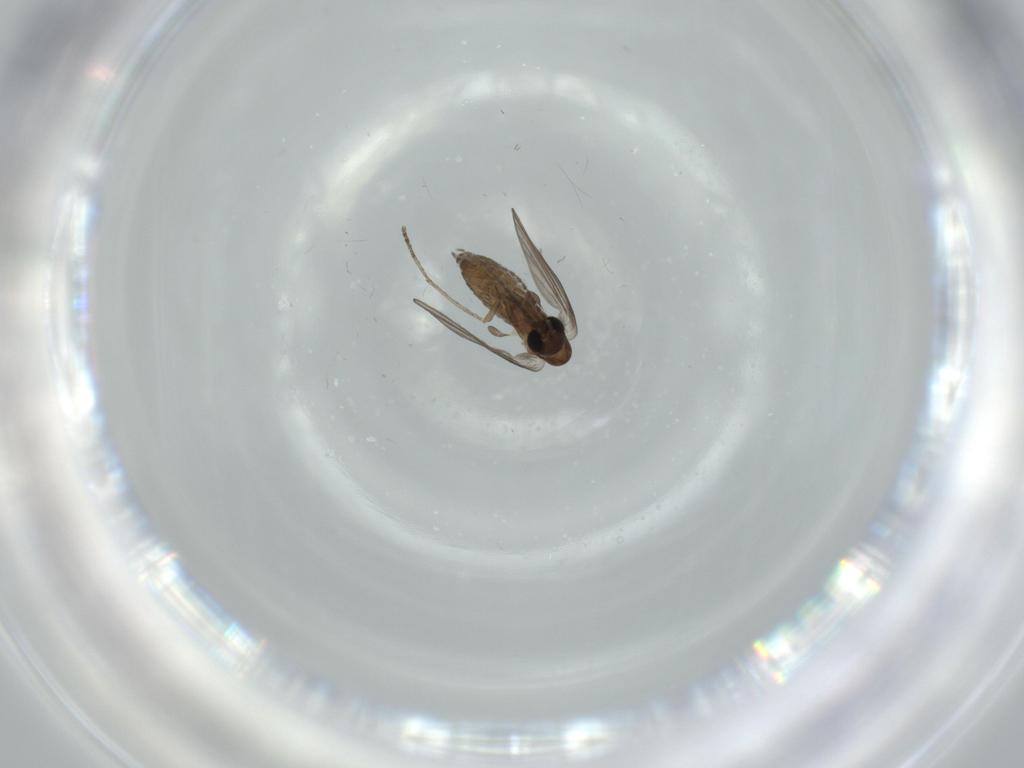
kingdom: Animalia
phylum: Arthropoda
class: Insecta
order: Diptera
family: Psychodidae
